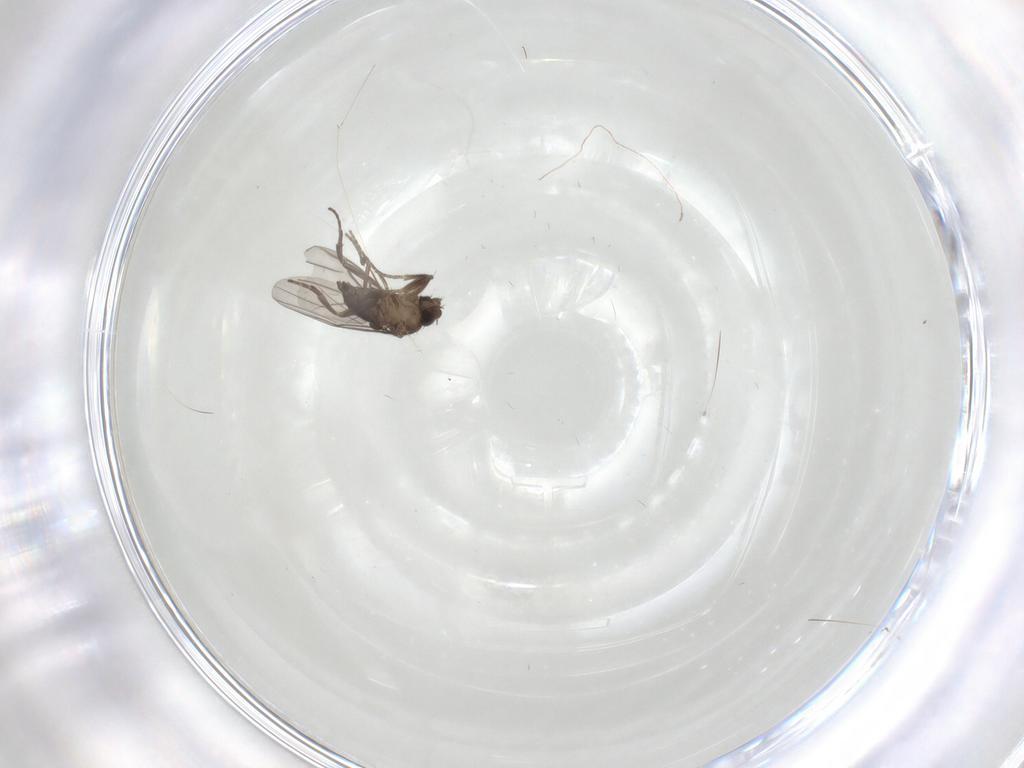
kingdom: Animalia
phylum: Arthropoda
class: Insecta
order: Diptera
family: Phoridae
